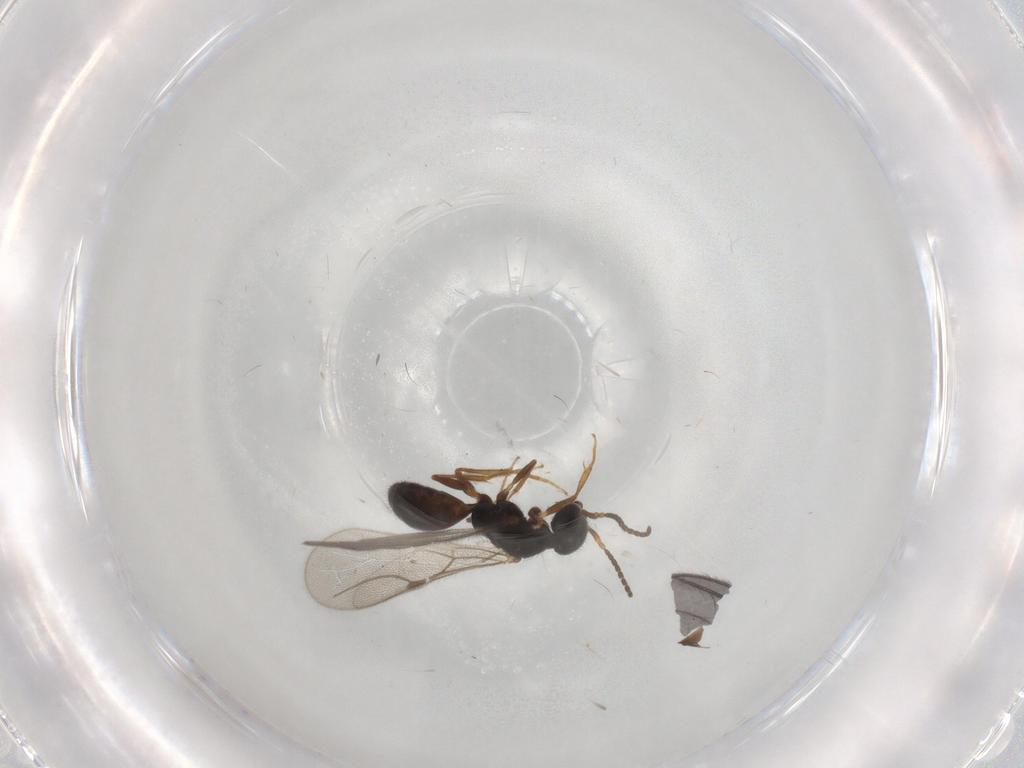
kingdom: Animalia
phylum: Arthropoda
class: Insecta
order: Hymenoptera
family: Bethylidae
